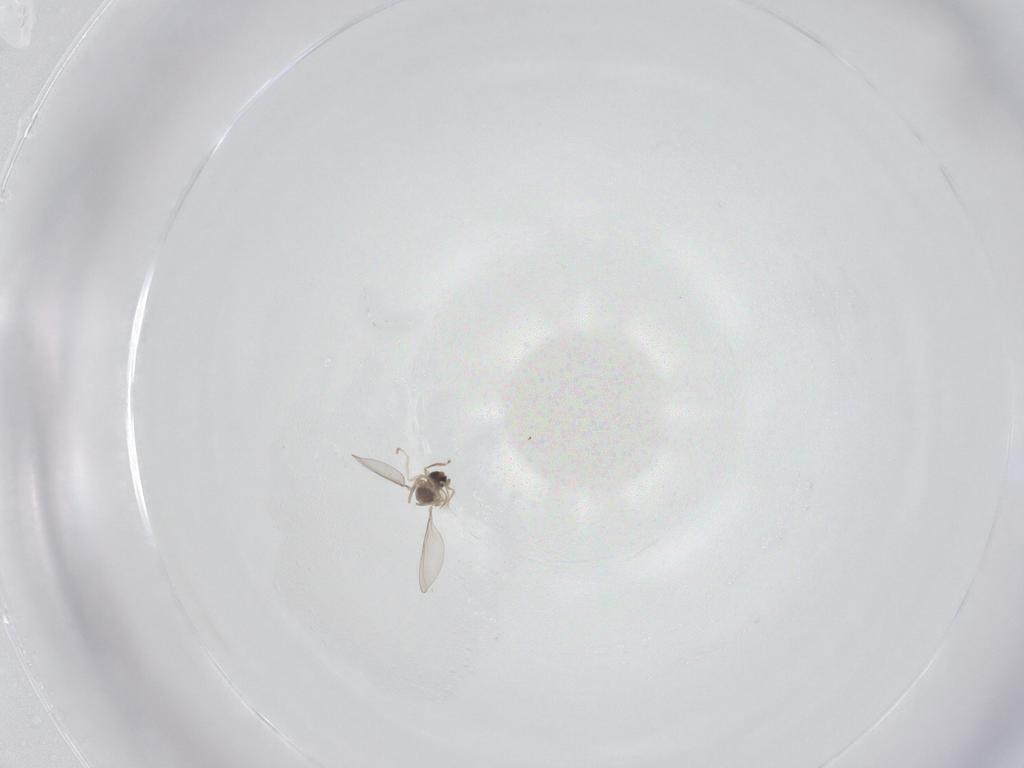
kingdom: Animalia
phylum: Arthropoda
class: Insecta
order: Diptera
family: Cecidomyiidae
